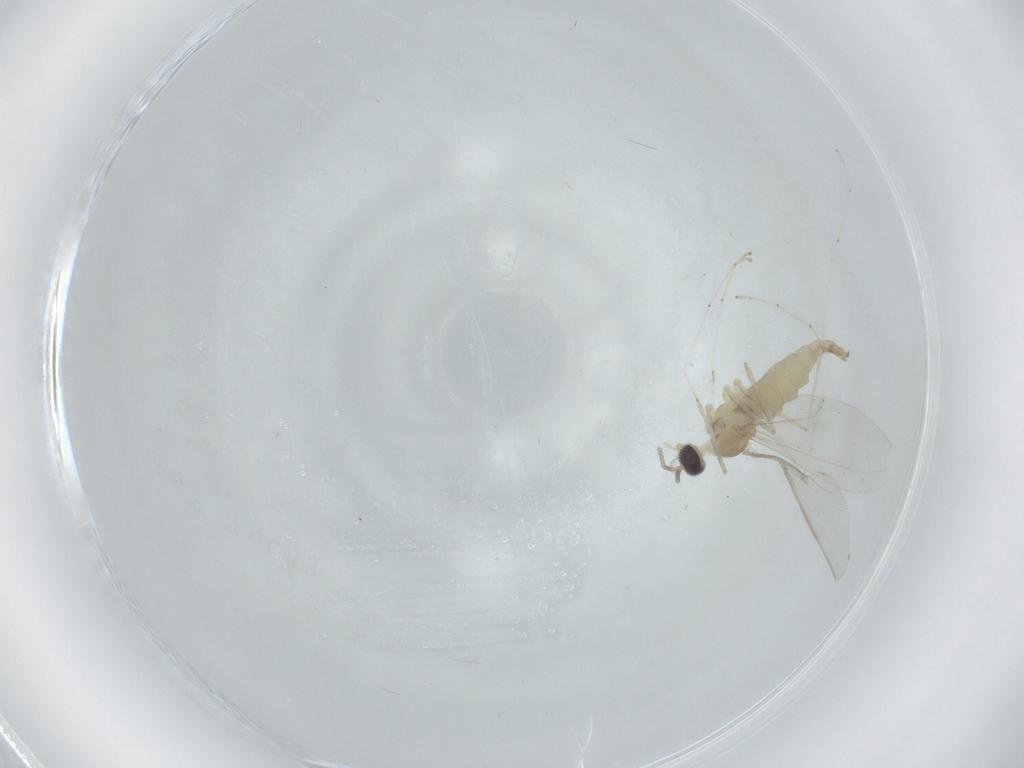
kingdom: Animalia
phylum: Arthropoda
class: Insecta
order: Diptera
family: Cecidomyiidae
